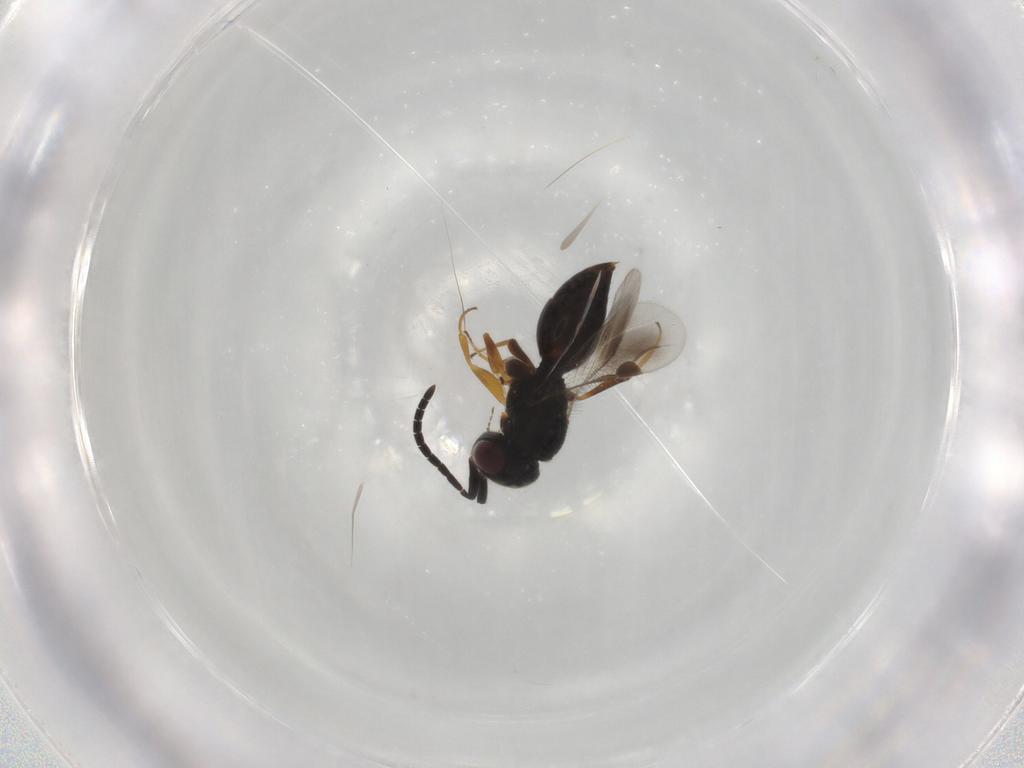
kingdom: Animalia
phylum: Arthropoda
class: Insecta
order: Hymenoptera
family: Megaspilidae
